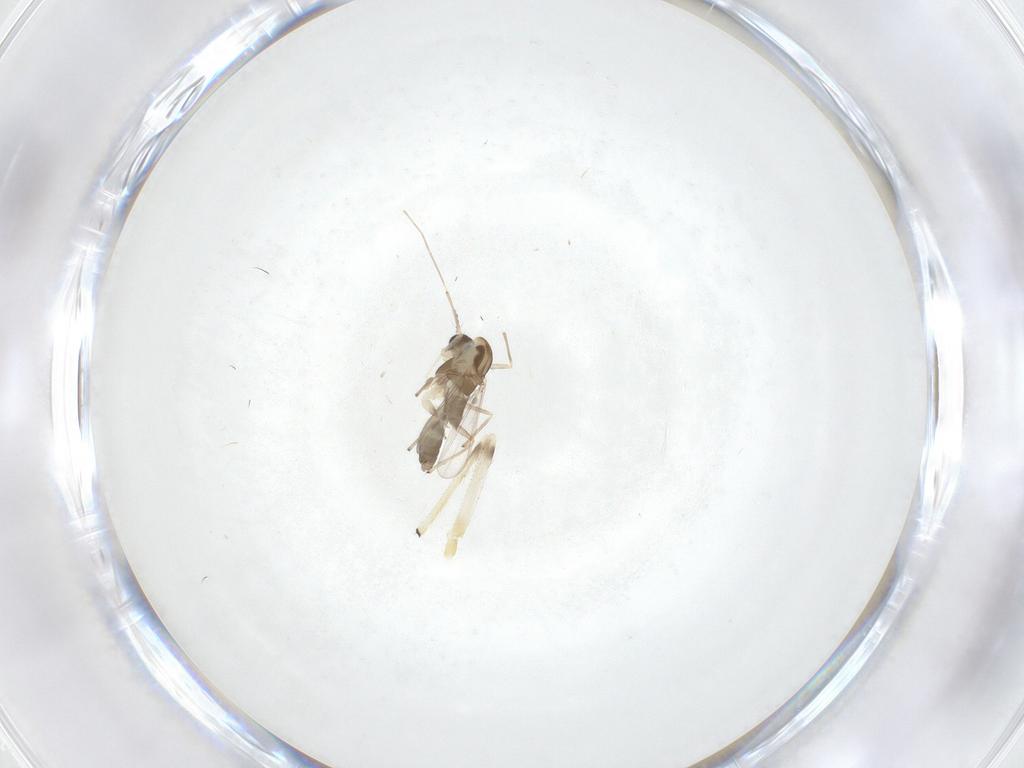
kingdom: Animalia
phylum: Arthropoda
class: Insecta
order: Diptera
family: Chironomidae
